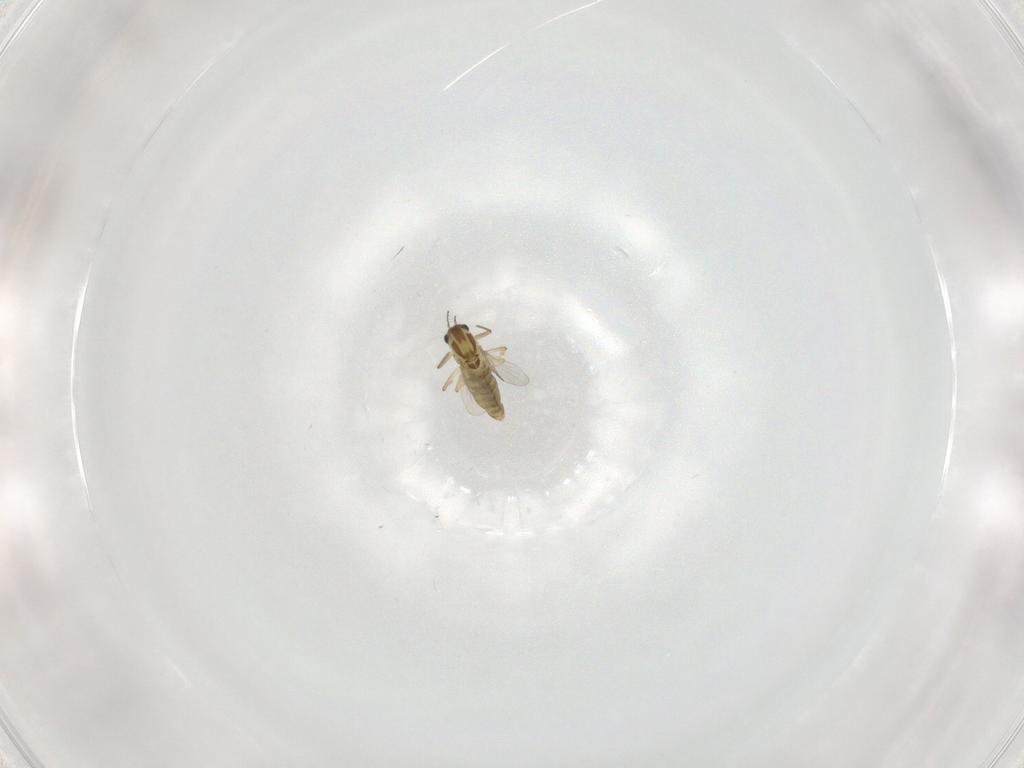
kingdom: Animalia
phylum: Arthropoda
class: Insecta
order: Diptera
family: Chironomidae
